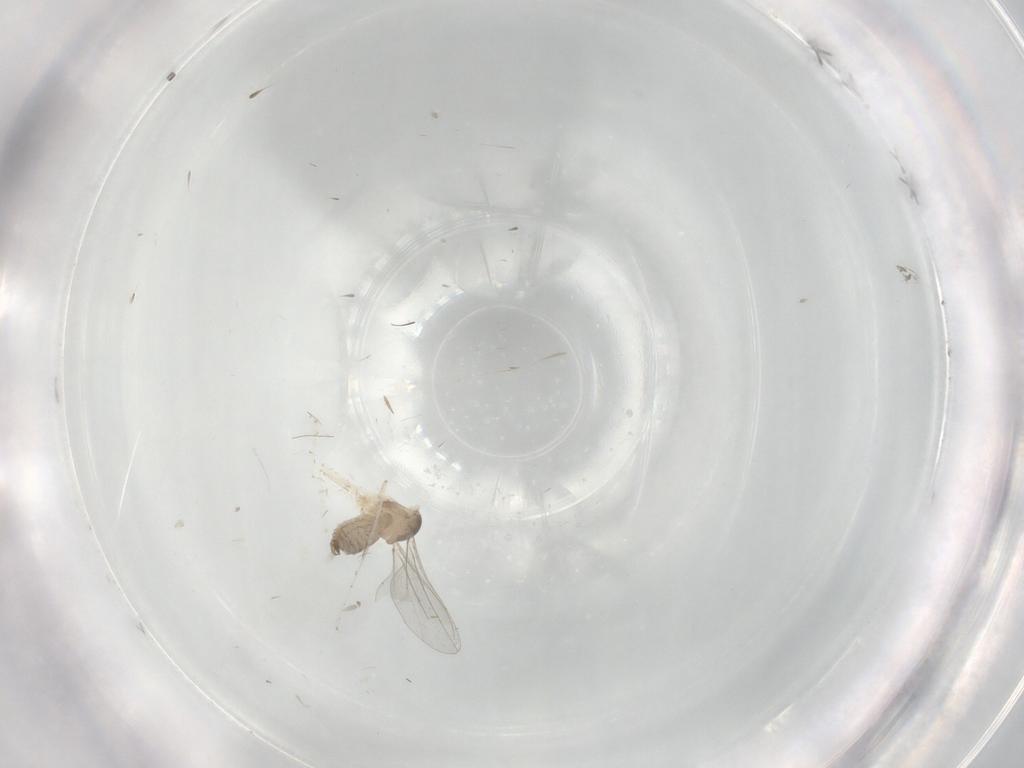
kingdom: Animalia
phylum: Arthropoda
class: Insecta
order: Diptera
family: Cecidomyiidae
